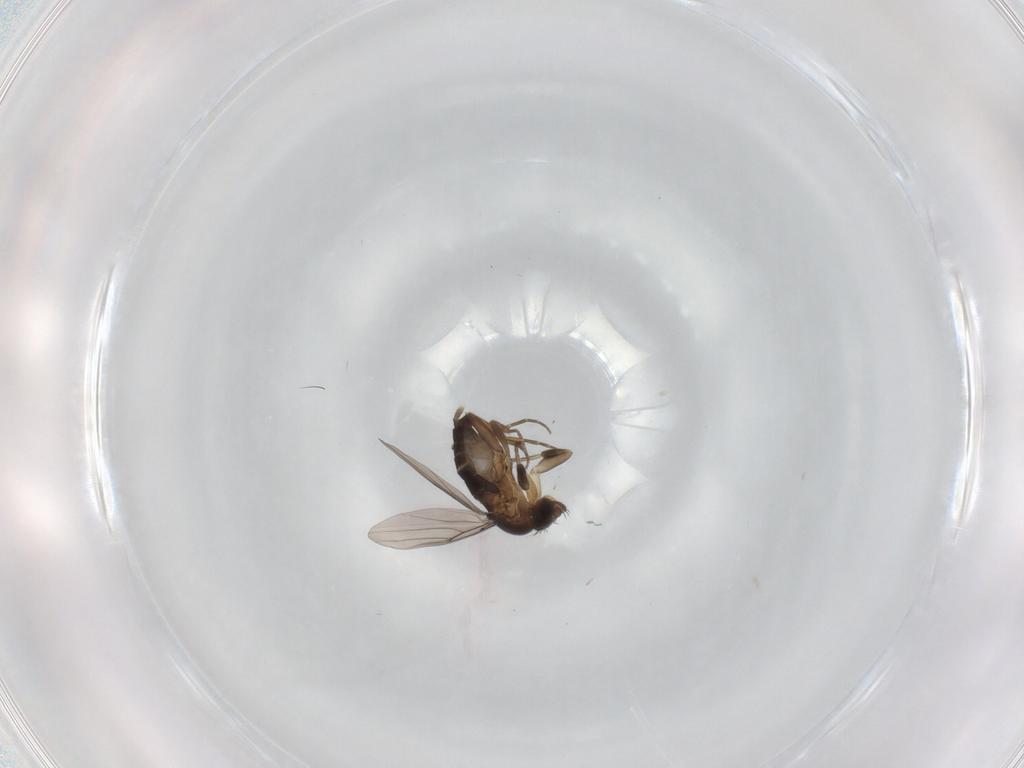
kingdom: Animalia
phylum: Arthropoda
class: Insecta
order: Diptera
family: Phoridae
